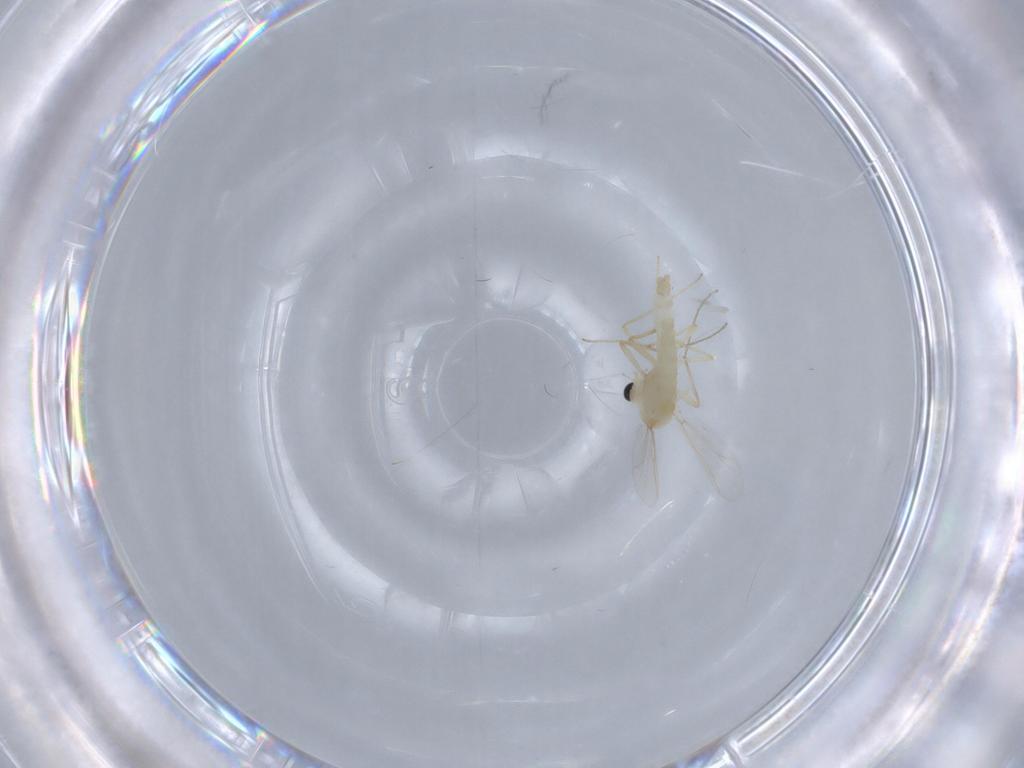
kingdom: Animalia
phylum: Arthropoda
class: Insecta
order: Diptera
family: Chironomidae
